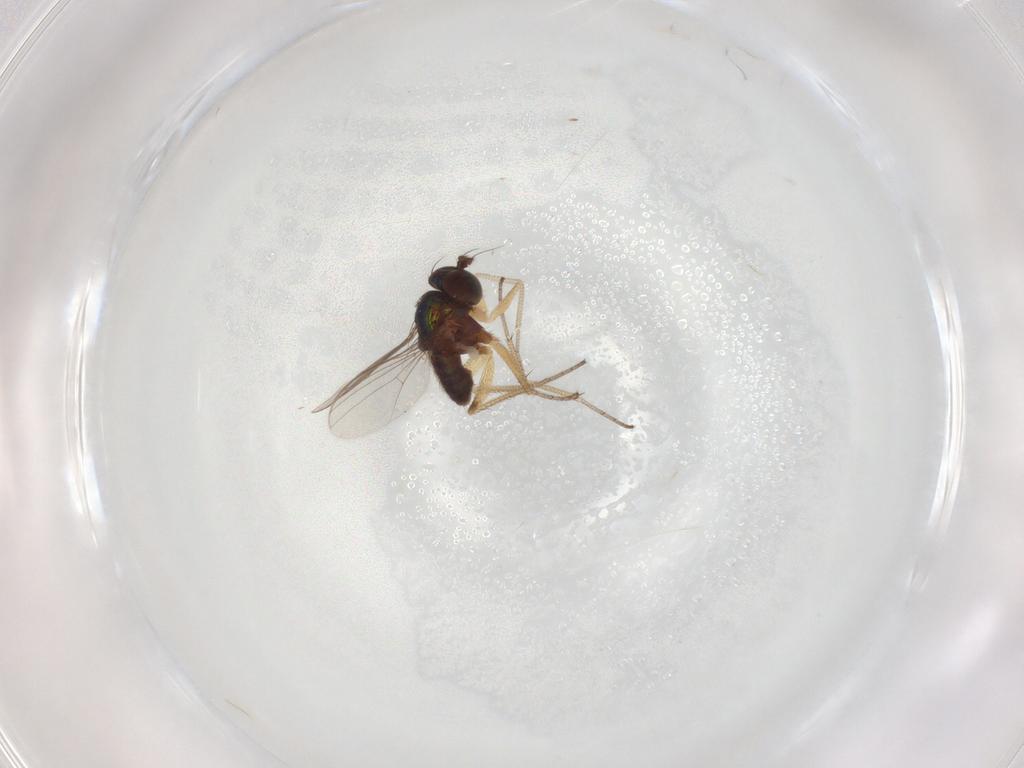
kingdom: Animalia
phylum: Arthropoda
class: Insecta
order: Diptera
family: Dolichopodidae
